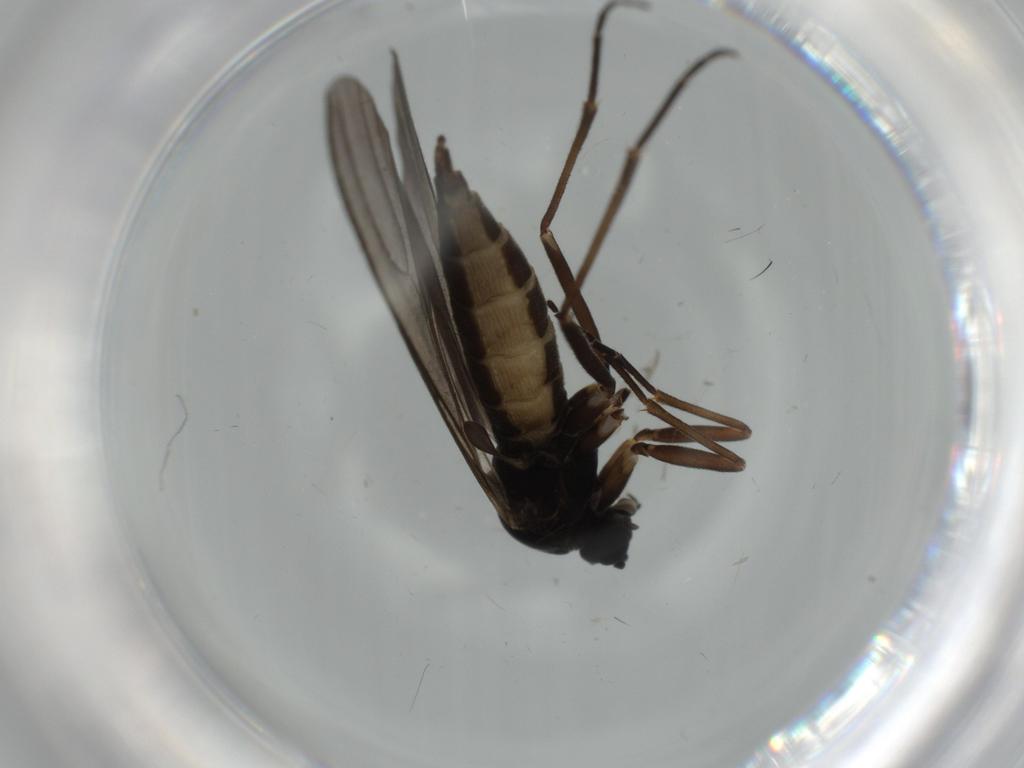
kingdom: Animalia
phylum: Arthropoda
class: Insecta
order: Diptera
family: Sciaridae
